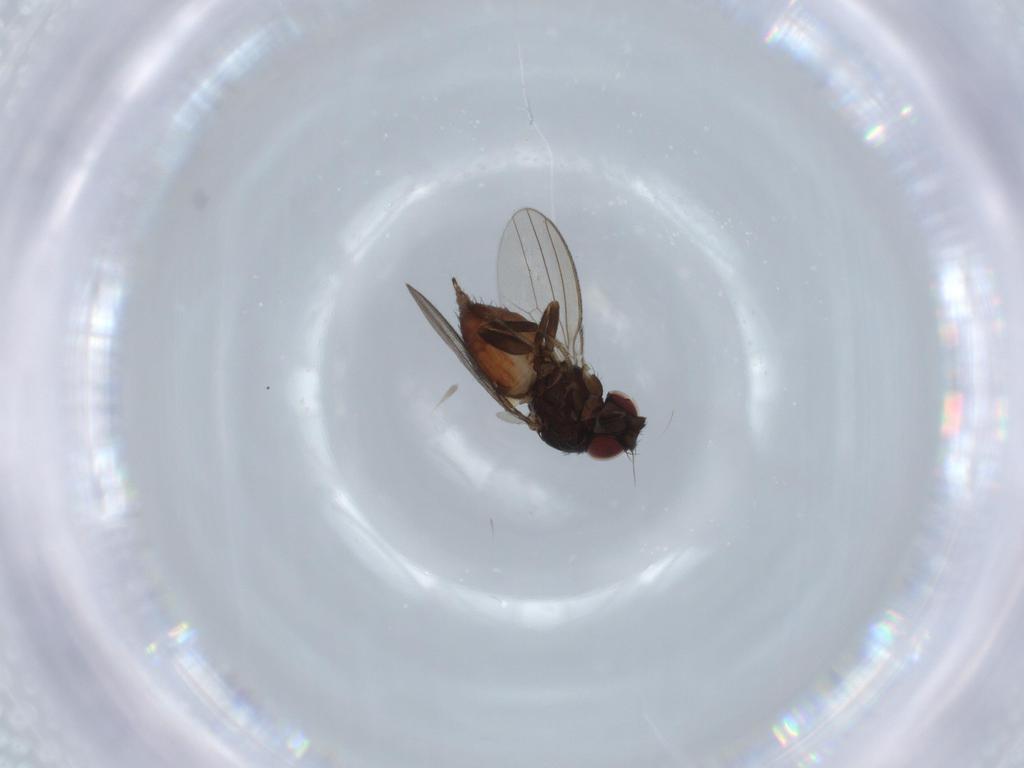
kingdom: Animalia
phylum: Arthropoda
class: Insecta
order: Diptera
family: Milichiidae
